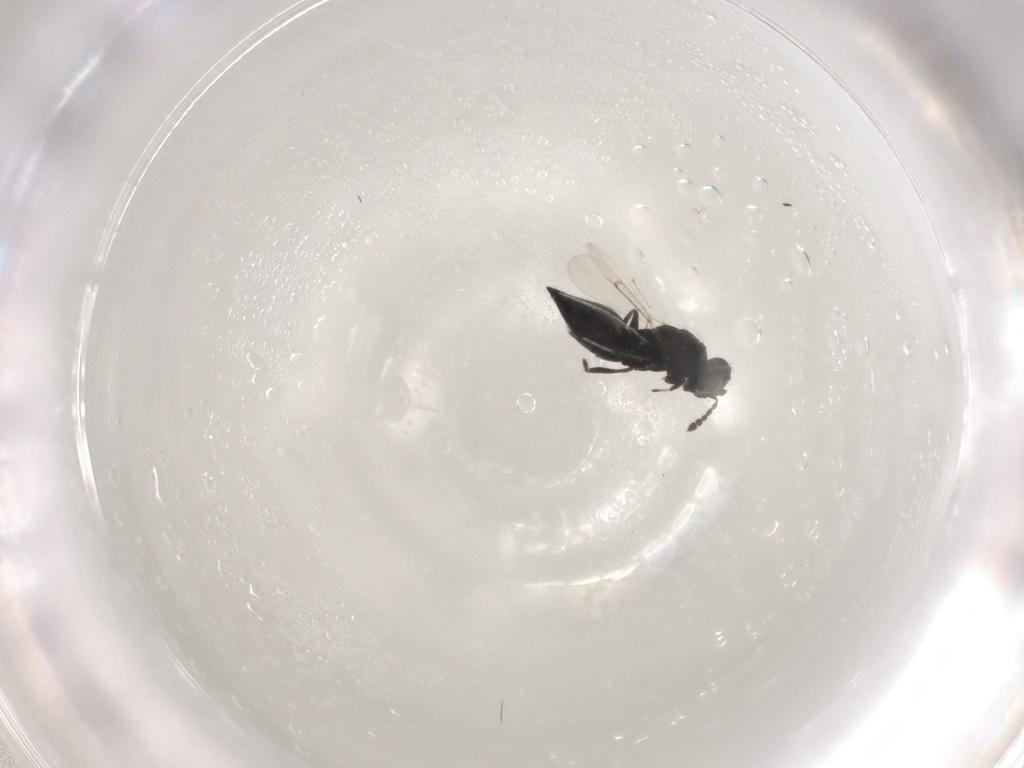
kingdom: Animalia
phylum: Arthropoda
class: Insecta
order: Hymenoptera
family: Eulophidae
